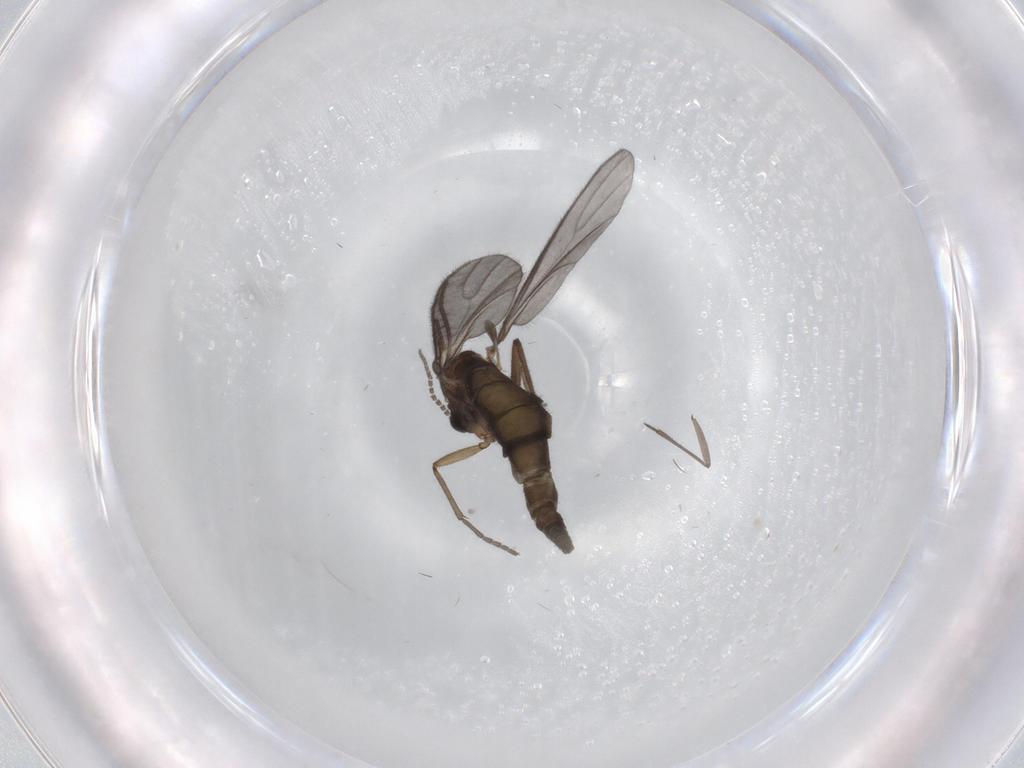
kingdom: Animalia
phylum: Arthropoda
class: Insecta
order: Diptera
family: Sciaridae
